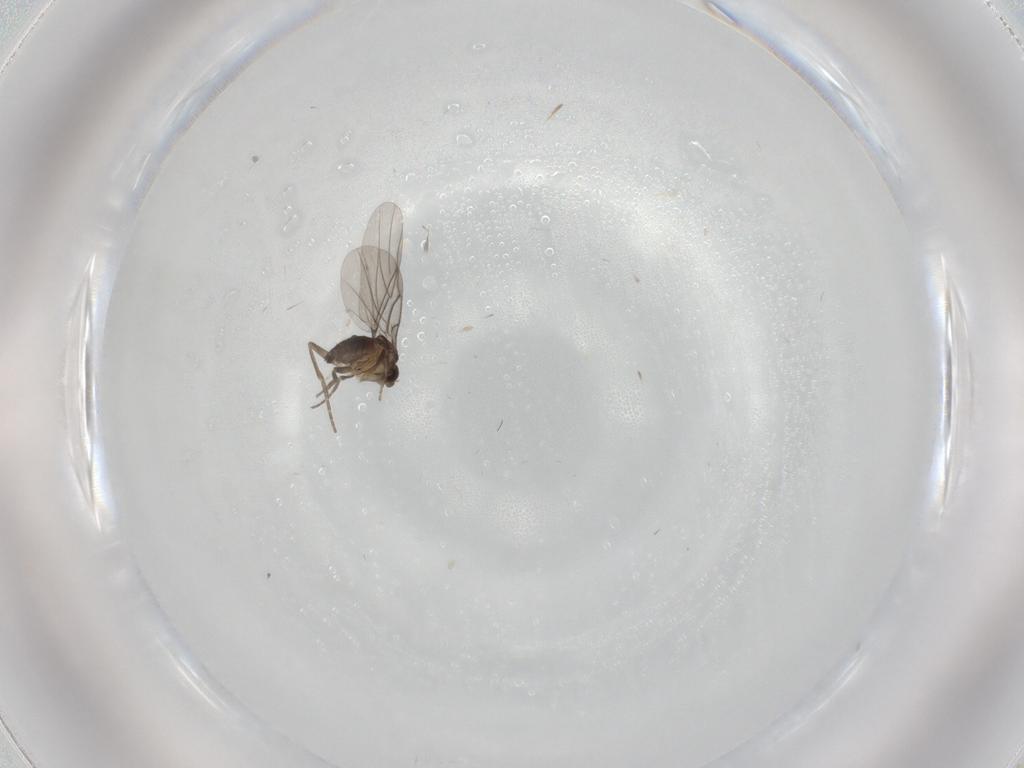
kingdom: Animalia
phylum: Arthropoda
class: Insecta
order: Diptera
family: Cecidomyiidae
